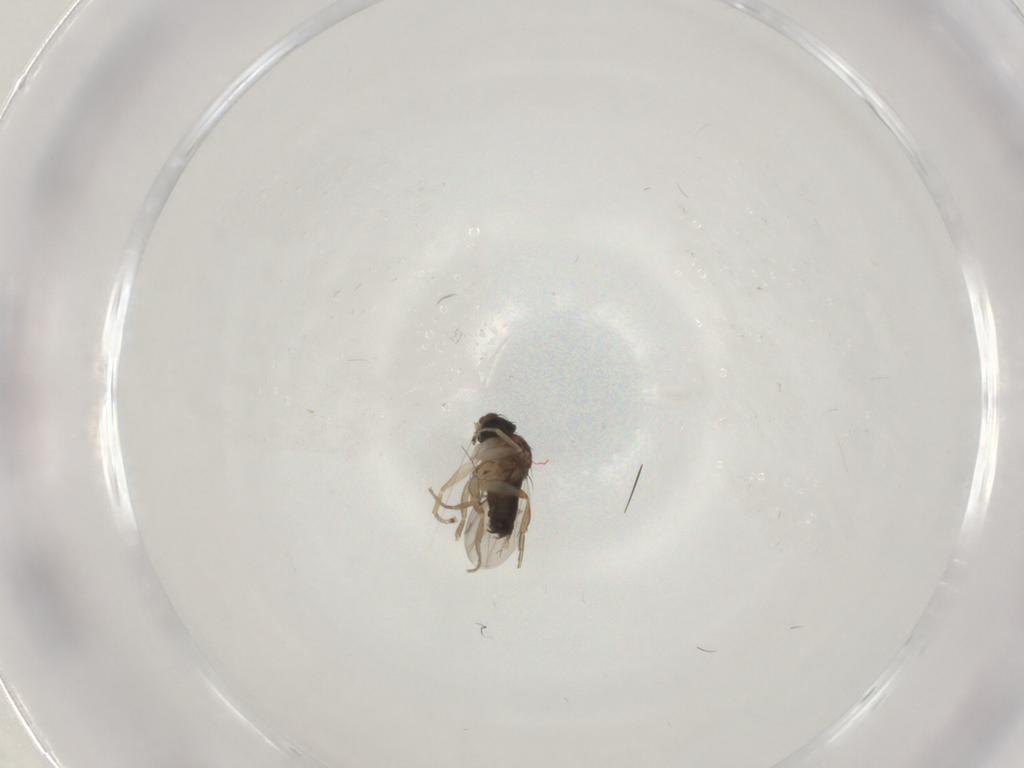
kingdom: Animalia
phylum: Arthropoda
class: Insecta
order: Diptera
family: Phoridae
